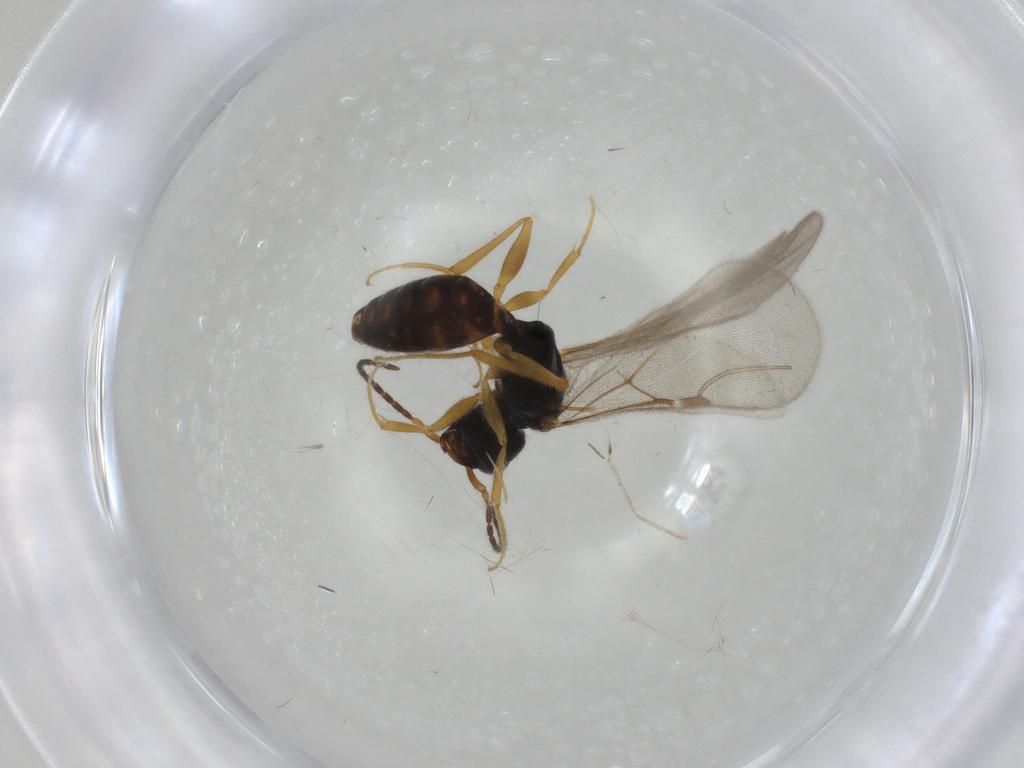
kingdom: Animalia
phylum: Arthropoda
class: Insecta
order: Hymenoptera
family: Bethylidae
